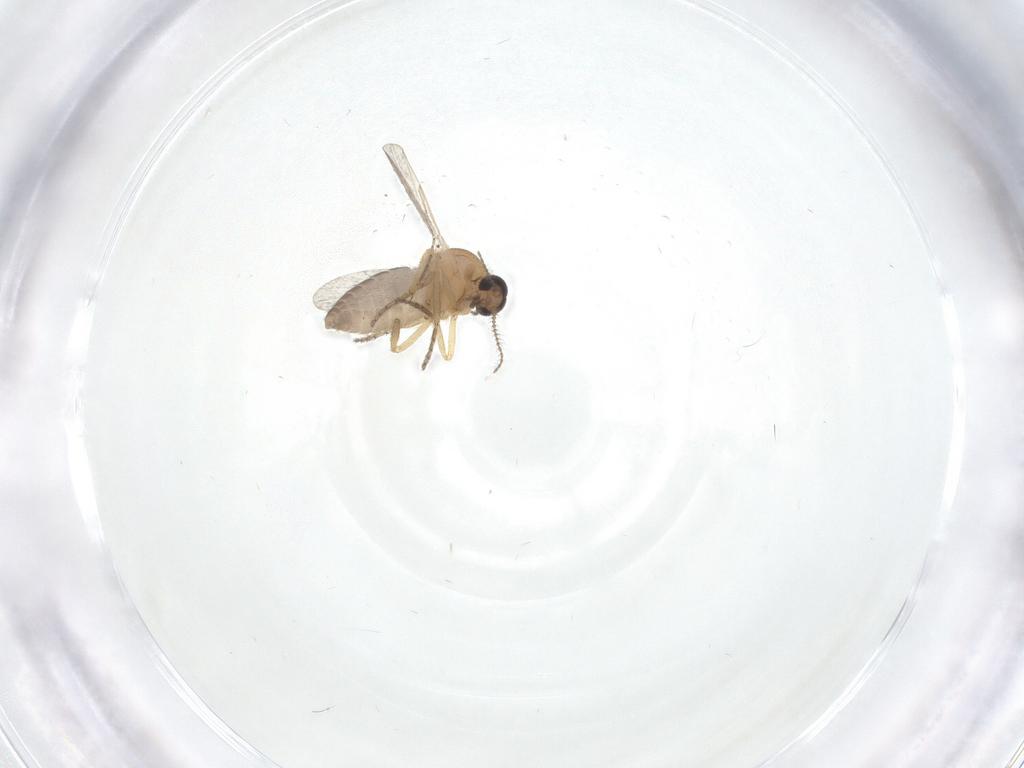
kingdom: Animalia
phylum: Arthropoda
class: Insecta
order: Diptera
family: Ceratopogonidae
